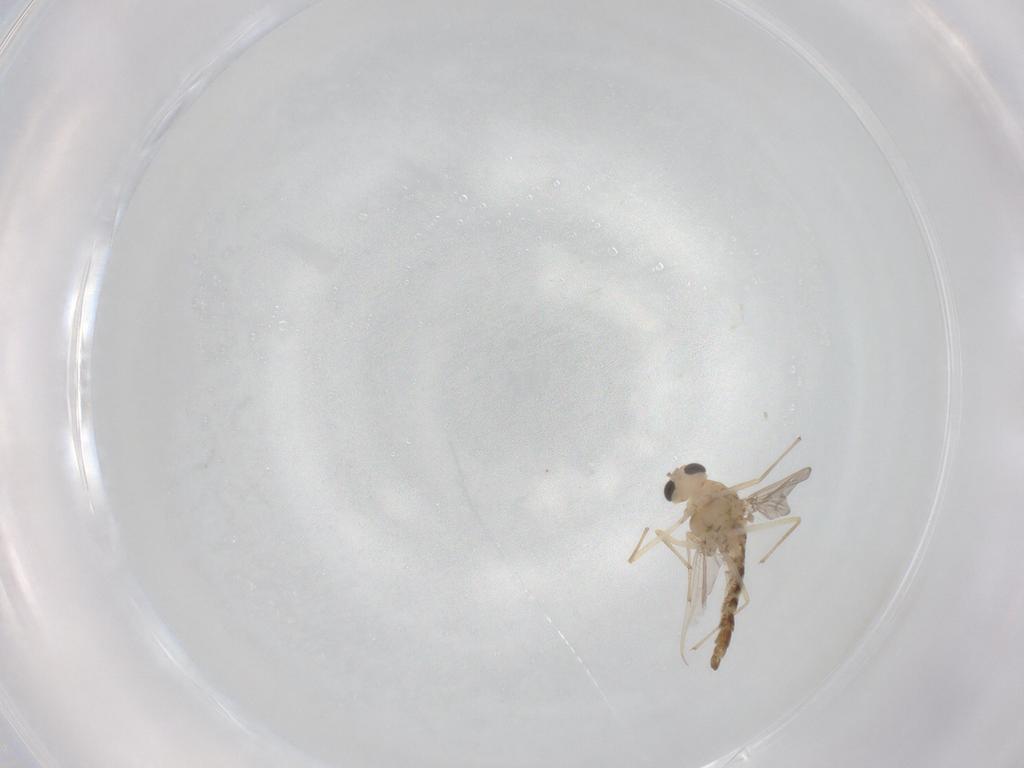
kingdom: Animalia
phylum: Arthropoda
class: Insecta
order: Diptera
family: Chironomidae
